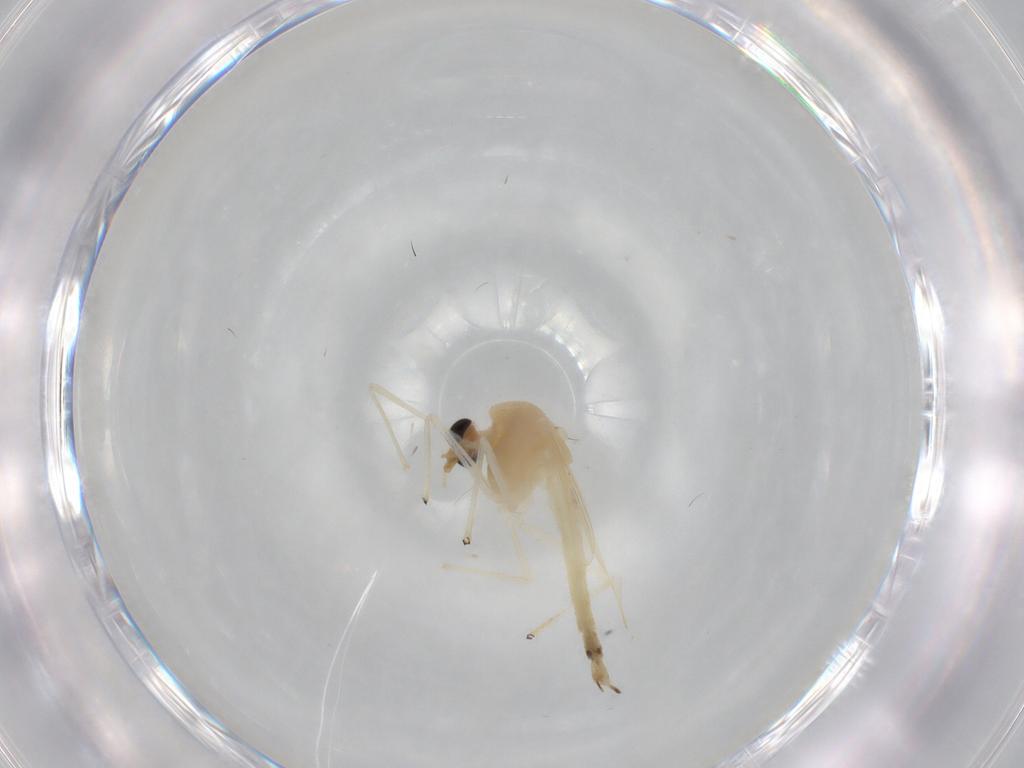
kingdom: Animalia
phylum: Arthropoda
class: Insecta
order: Diptera
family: Chironomidae
